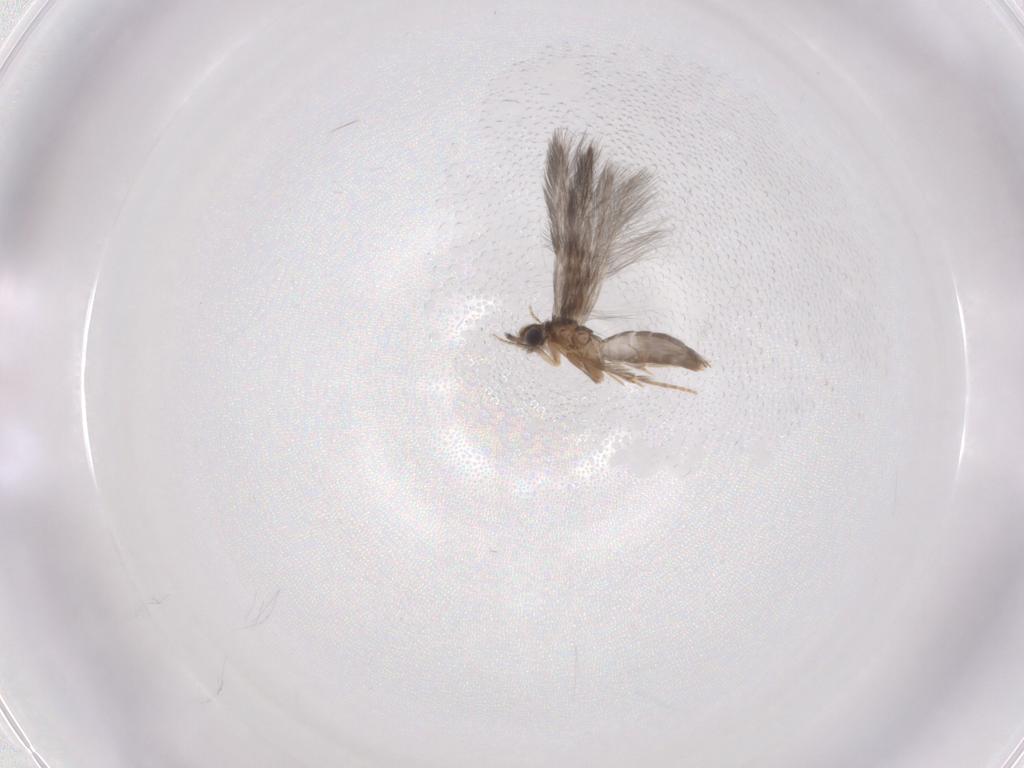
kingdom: Animalia
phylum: Arthropoda
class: Insecta
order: Trichoptera
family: Hydroptilidae
